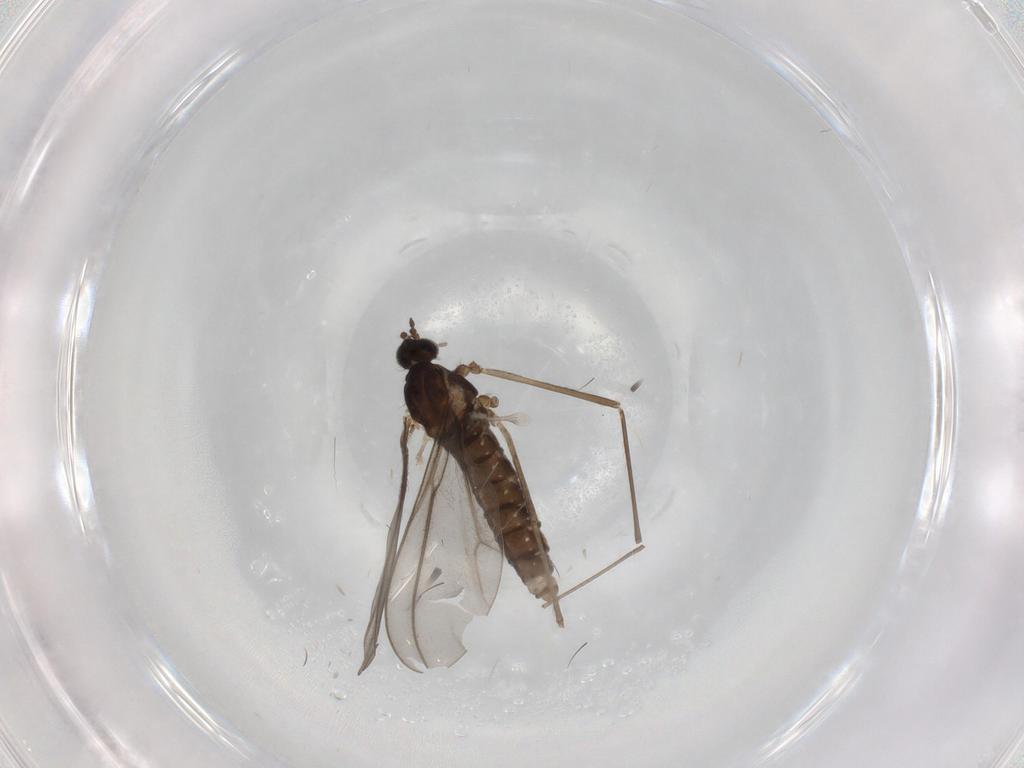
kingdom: Animalia
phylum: Arthropoda
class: Insecta
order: Diptera
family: Cecidomyiidae
